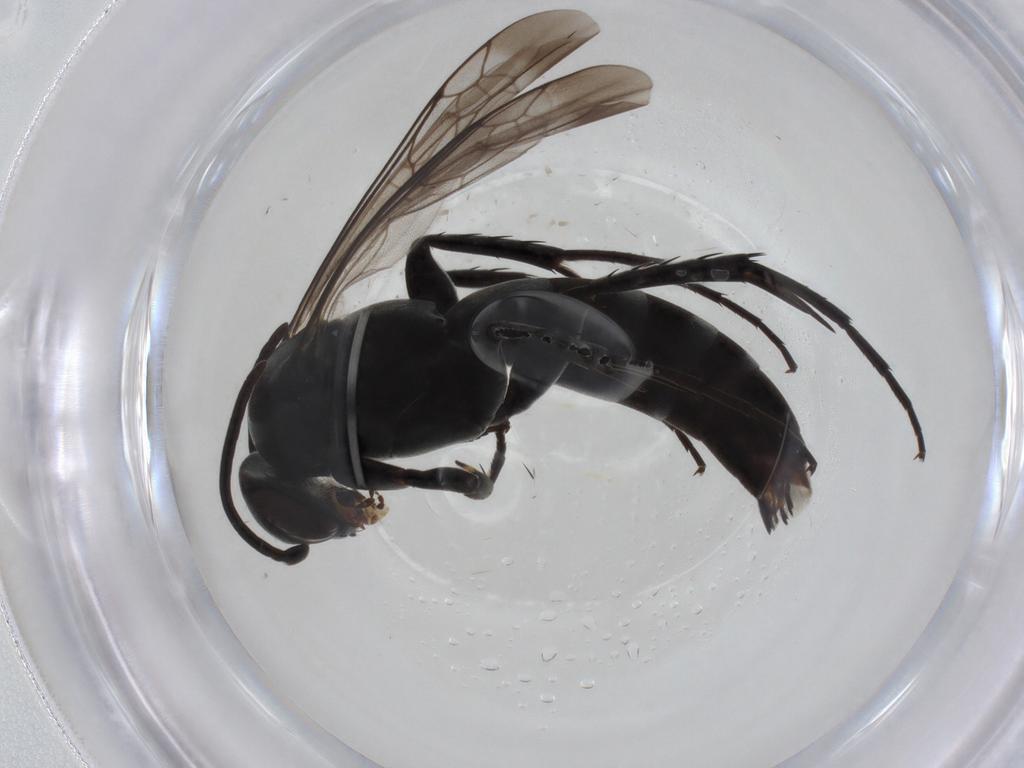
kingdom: Animalia
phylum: Arthropoda
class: Insecta
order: Hymenoptera
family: Pompilidae
